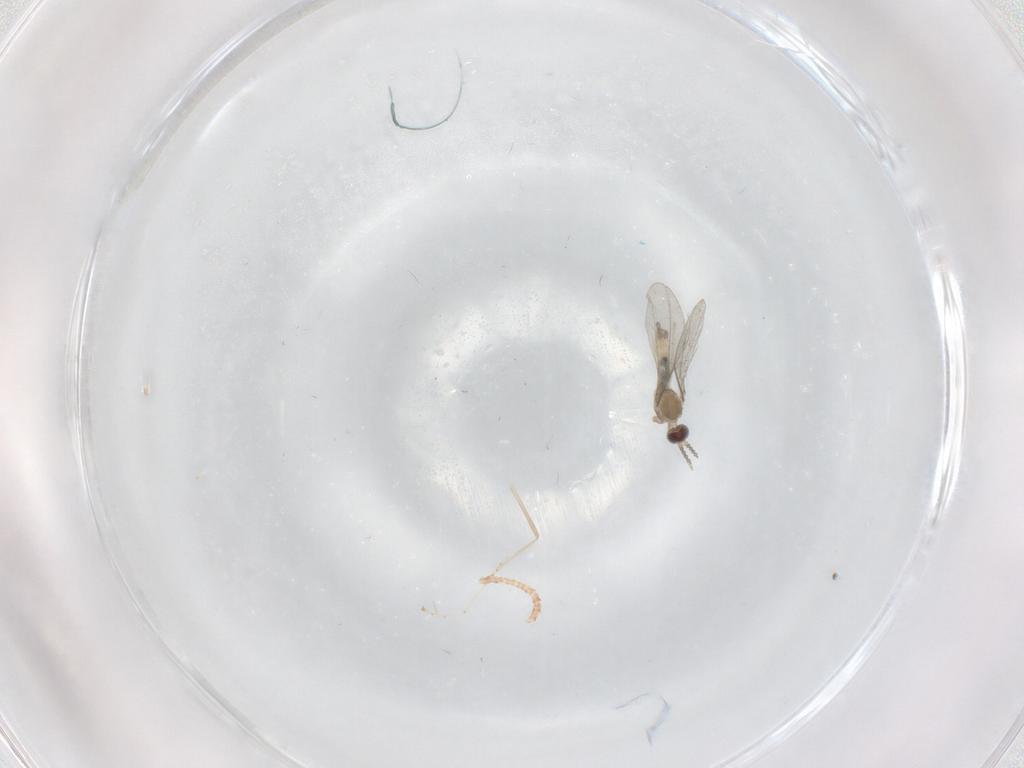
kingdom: Animalia
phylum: Arthropoda
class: Insecta
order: Diptera
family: Cecidomyiidae
